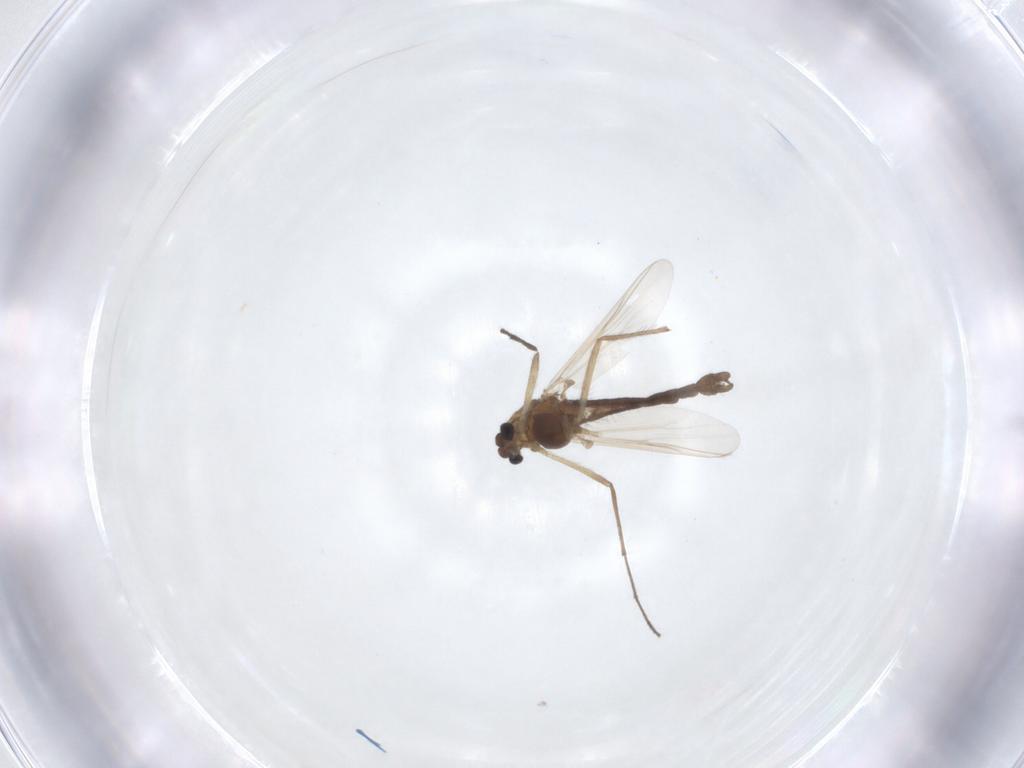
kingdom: Animalia
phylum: Arthropoda
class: Insecta
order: Diptera
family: Chironomidae
